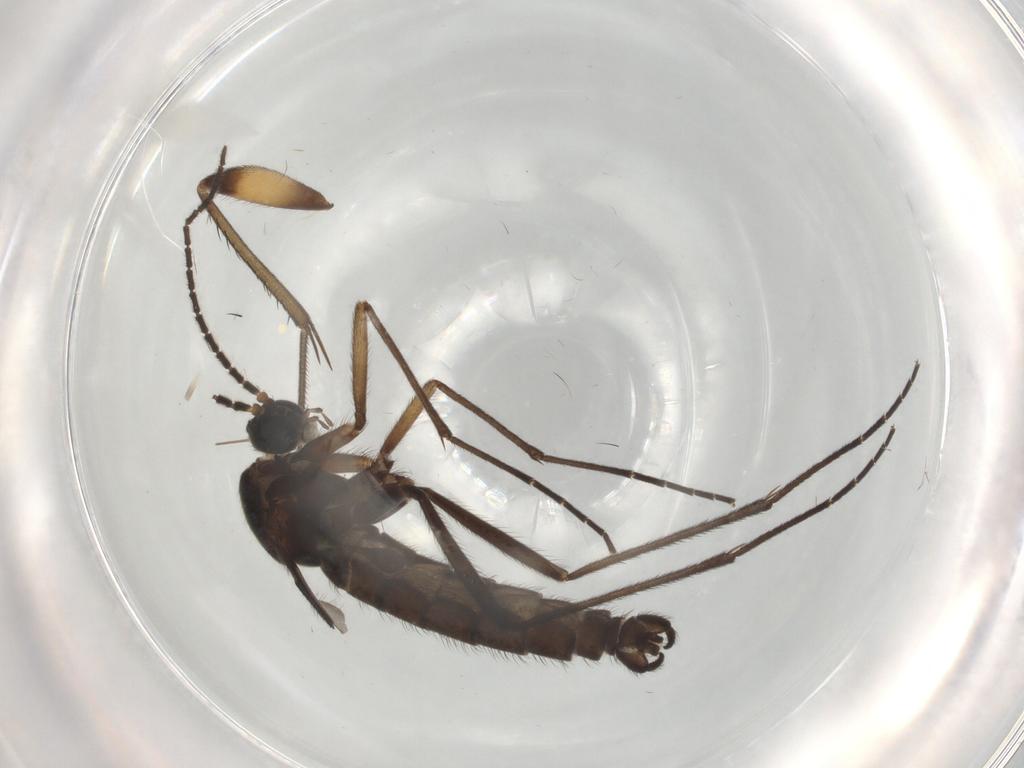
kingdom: Animalia
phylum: Arthropoda
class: Insecta
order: Diptera
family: Sciaridae
